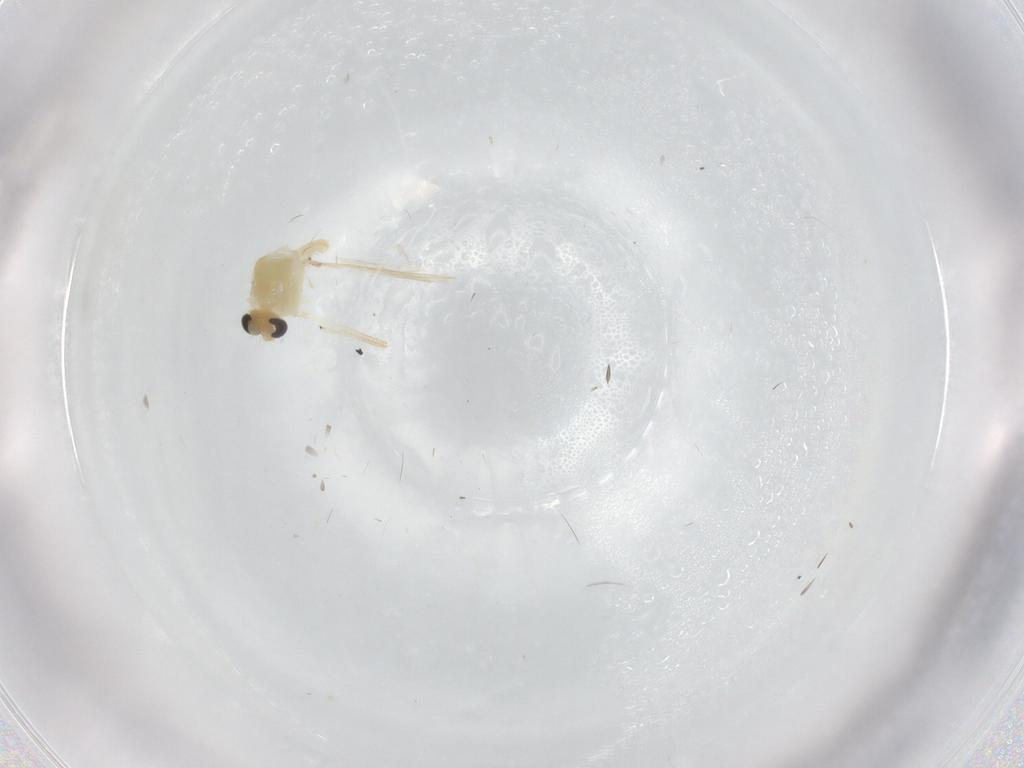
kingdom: Animalia
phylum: Arthropoda
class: Insecta
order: Diptera
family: Chironomidae
